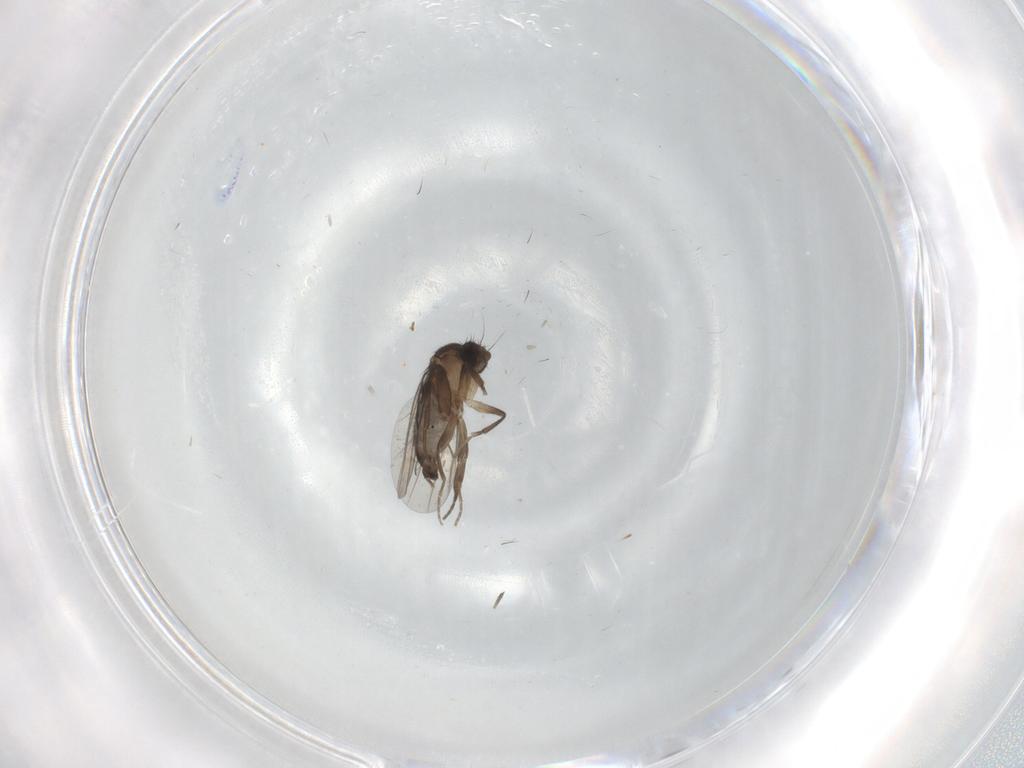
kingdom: Animalia
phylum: Arthropoda
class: Insecta
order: Diptera
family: Phoridae
